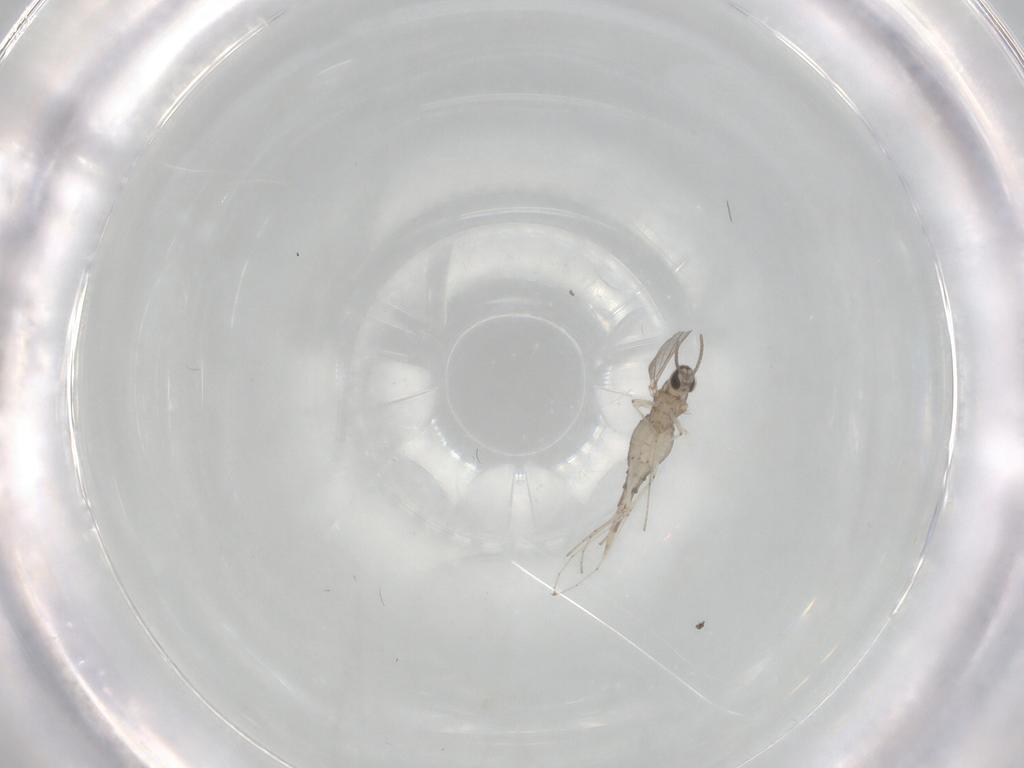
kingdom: Animalia
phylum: Arthropoda
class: Insecta
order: Diptera
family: Cecidomyiidae
